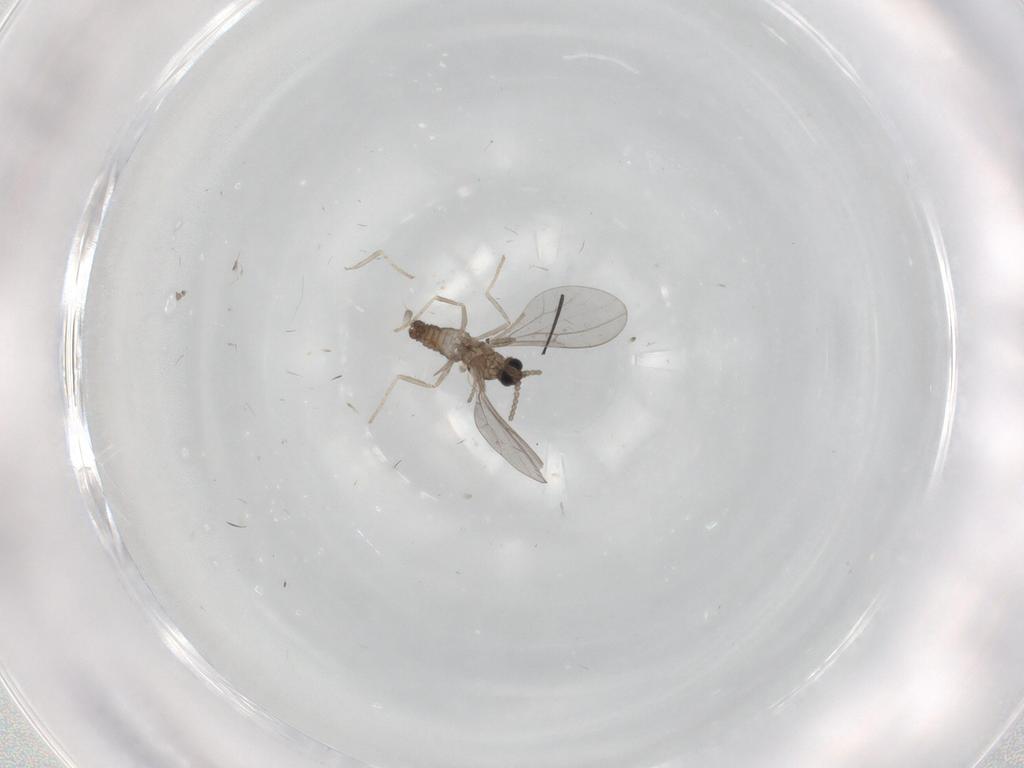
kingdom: Animalia
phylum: Arthropoda
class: Insecta
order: Diptera
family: Cecidomyiidae
